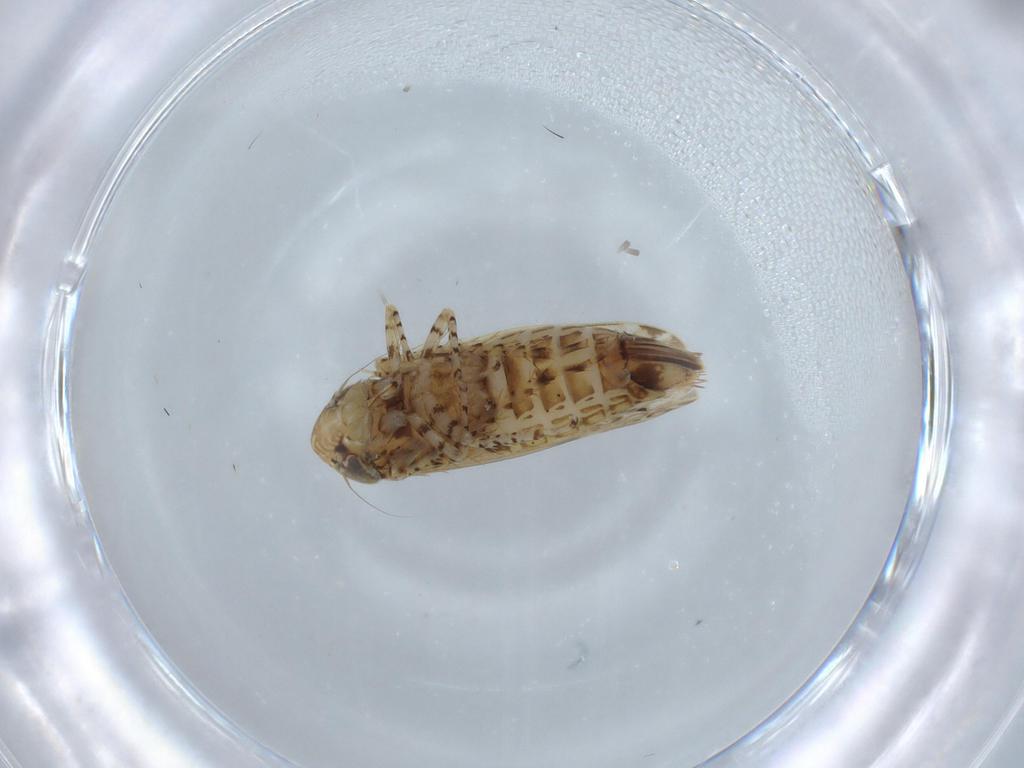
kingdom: Animalia
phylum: Arthropoda
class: Insecta
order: Hemiptera
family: Cicadellidae
